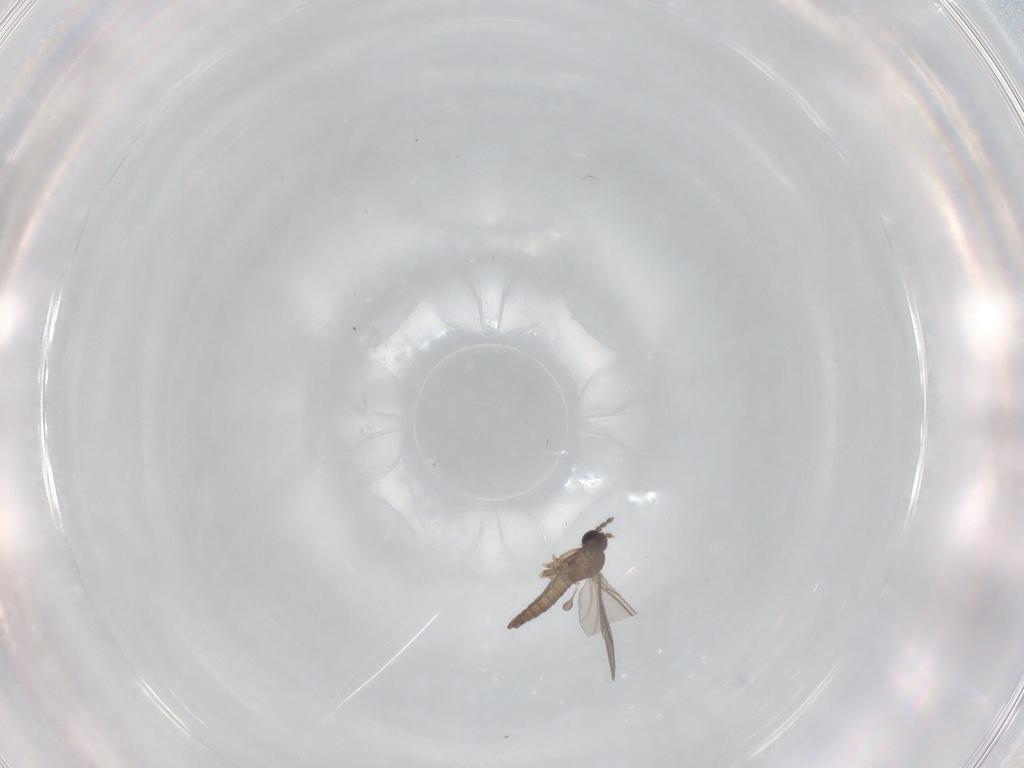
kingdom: Animalia
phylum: Arthropoda
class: Insecta
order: Diptera
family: Sciaridae
